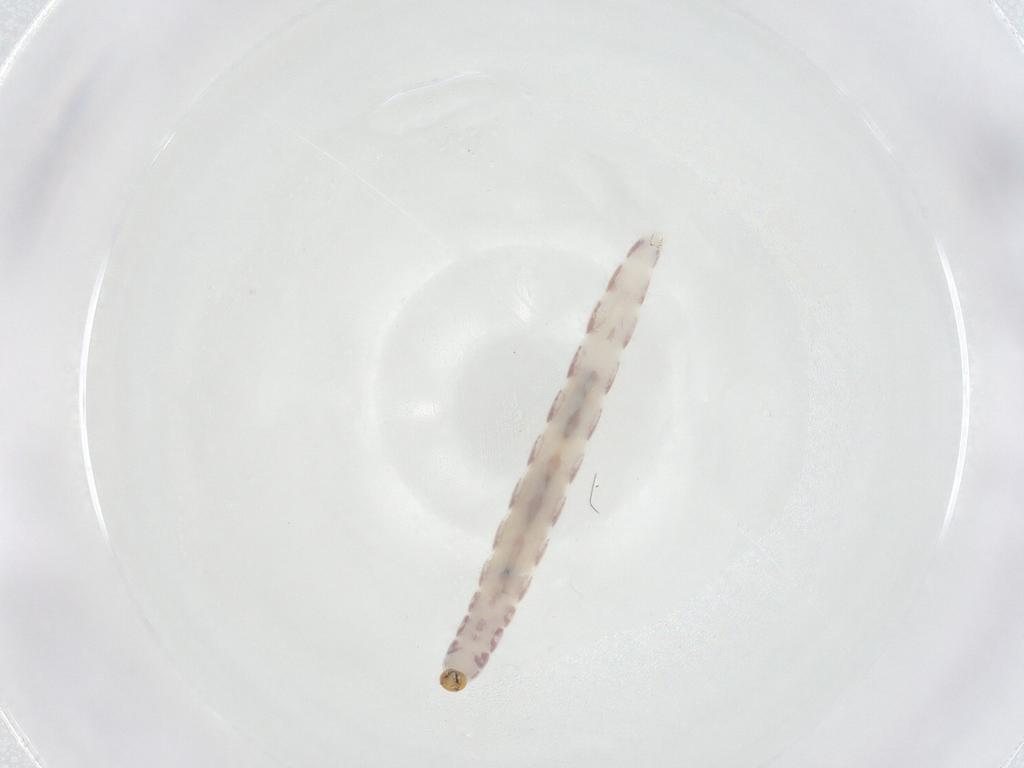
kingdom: Animalia
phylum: Arthropoda
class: Insecta
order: Diptera
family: Chironomidae
